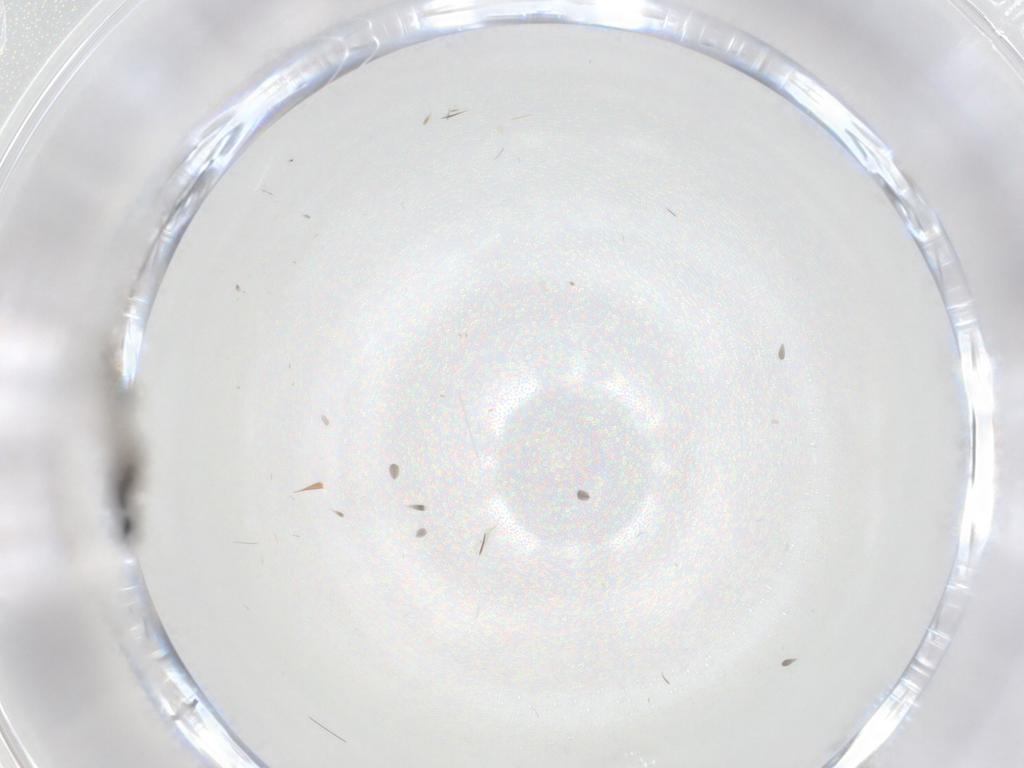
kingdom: Animalia
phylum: Arthropoda
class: Insecta
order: Diptera
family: Chironomidae
